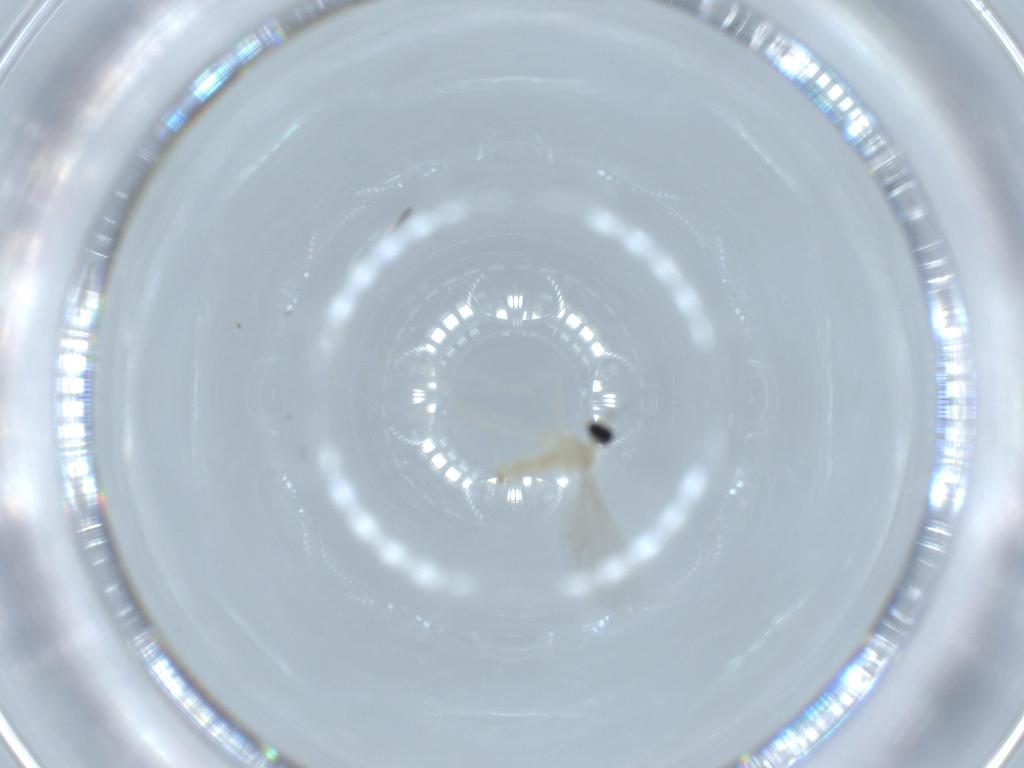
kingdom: Animalia
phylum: Arthropoda
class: Insecta
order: Diptera
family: Cecidomyiidae
